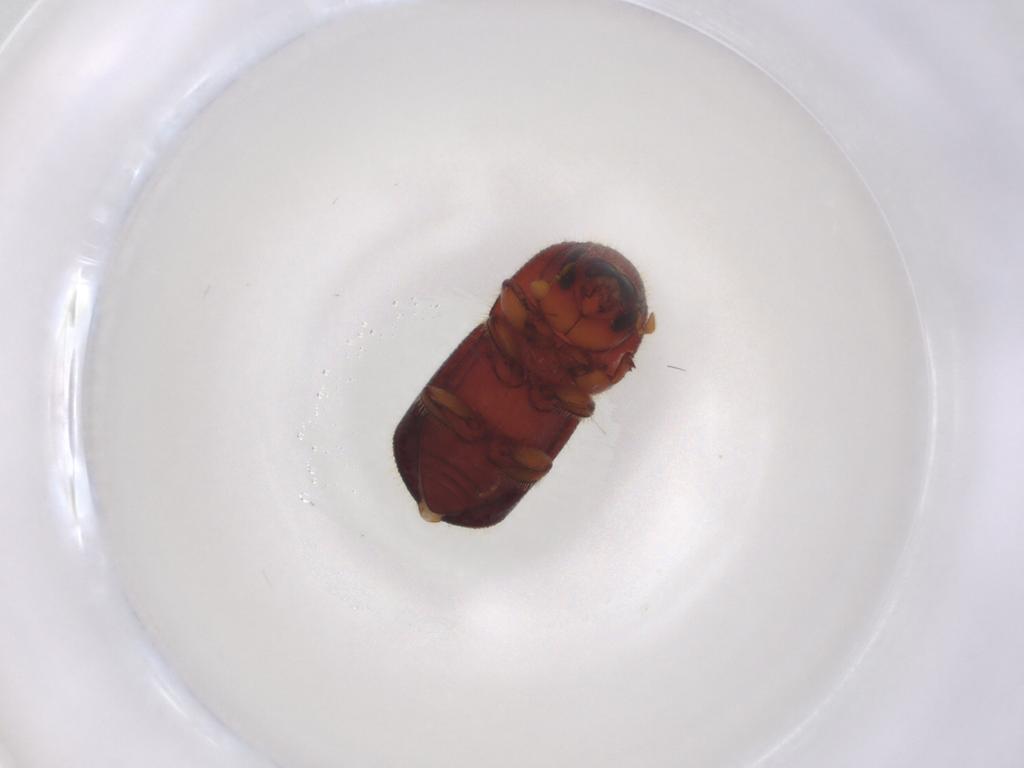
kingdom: Animalia
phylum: Arthropoda
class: Insecta
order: Coleoptera
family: Curculionidae
